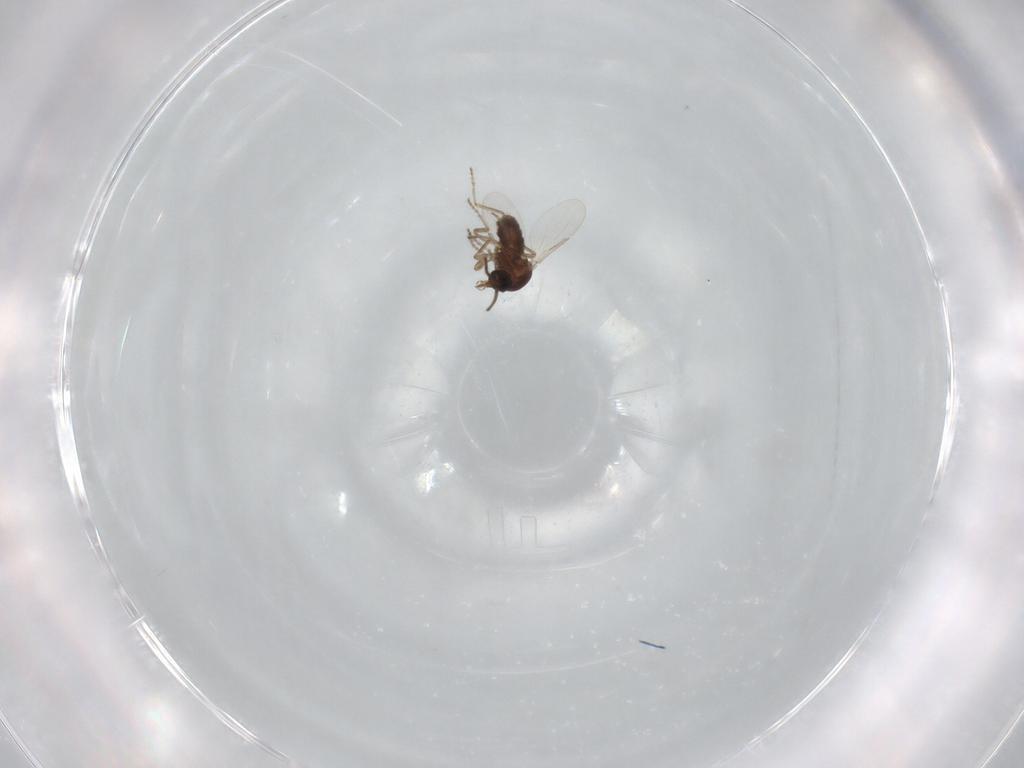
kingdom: Animalia
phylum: Arthropoda
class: Insecta
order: Diptera
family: Ceratopogonidae
